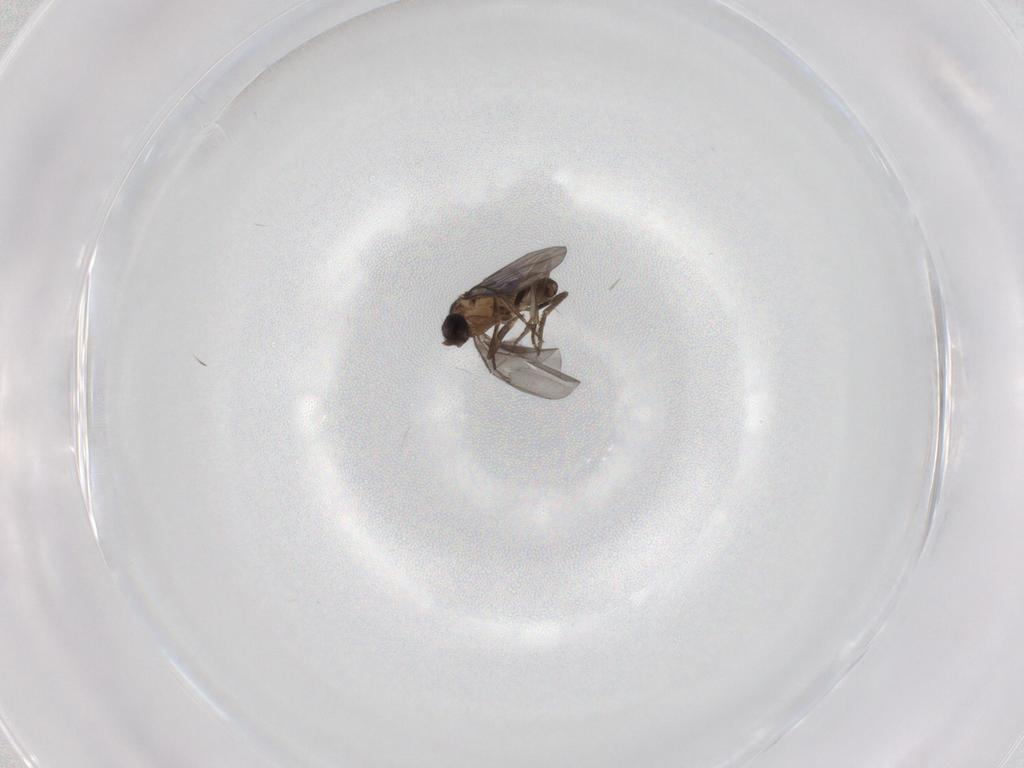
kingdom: Animalia
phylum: Arthropoda
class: Insecta
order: Diptera
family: Phoridae
